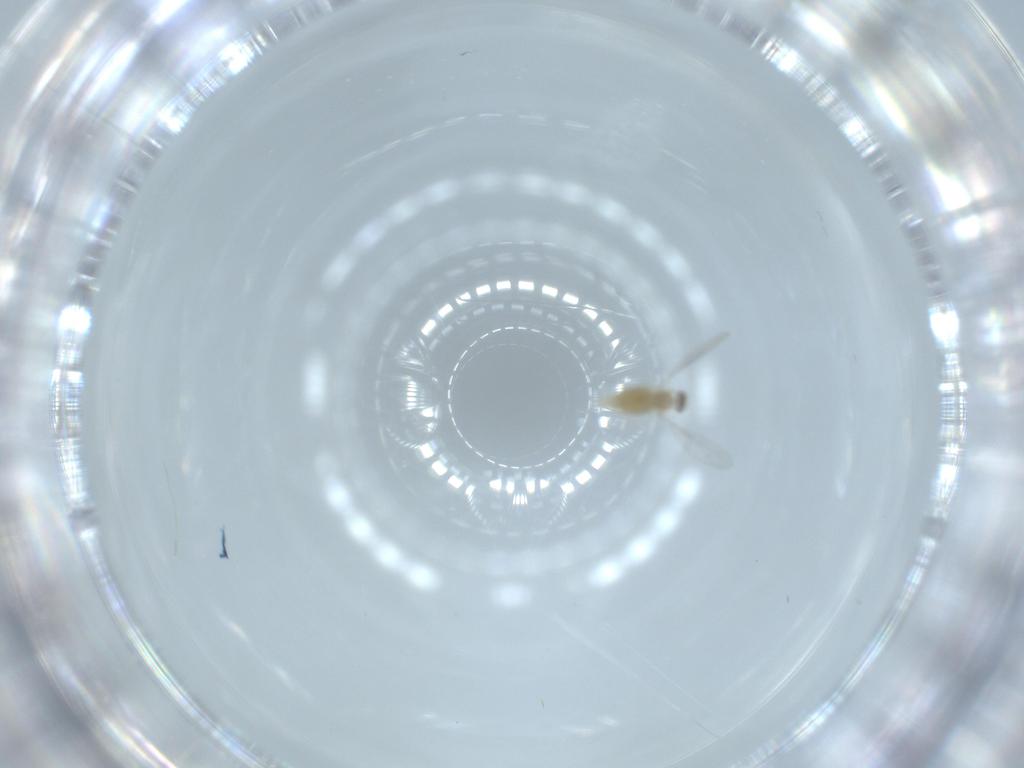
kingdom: Animalia
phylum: Arthropoda
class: Insecta
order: Diptera
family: Cecidomyiidae
